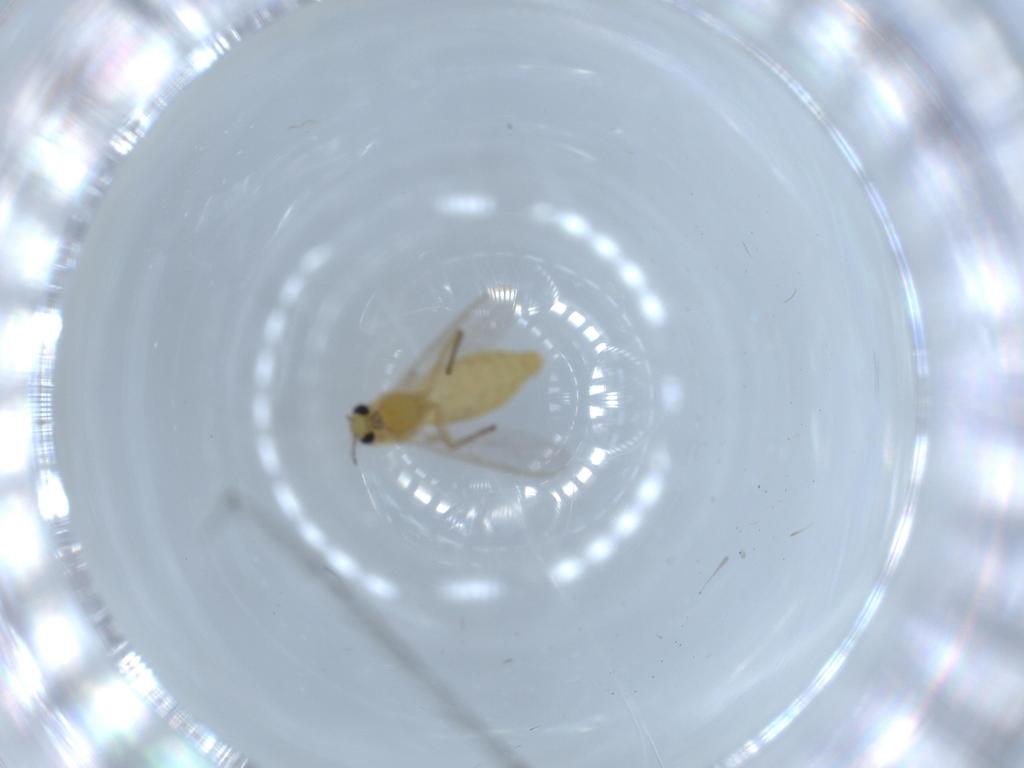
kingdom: Animalia
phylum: Arthropoda
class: Insecta
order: Diptera
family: Chironomidae
